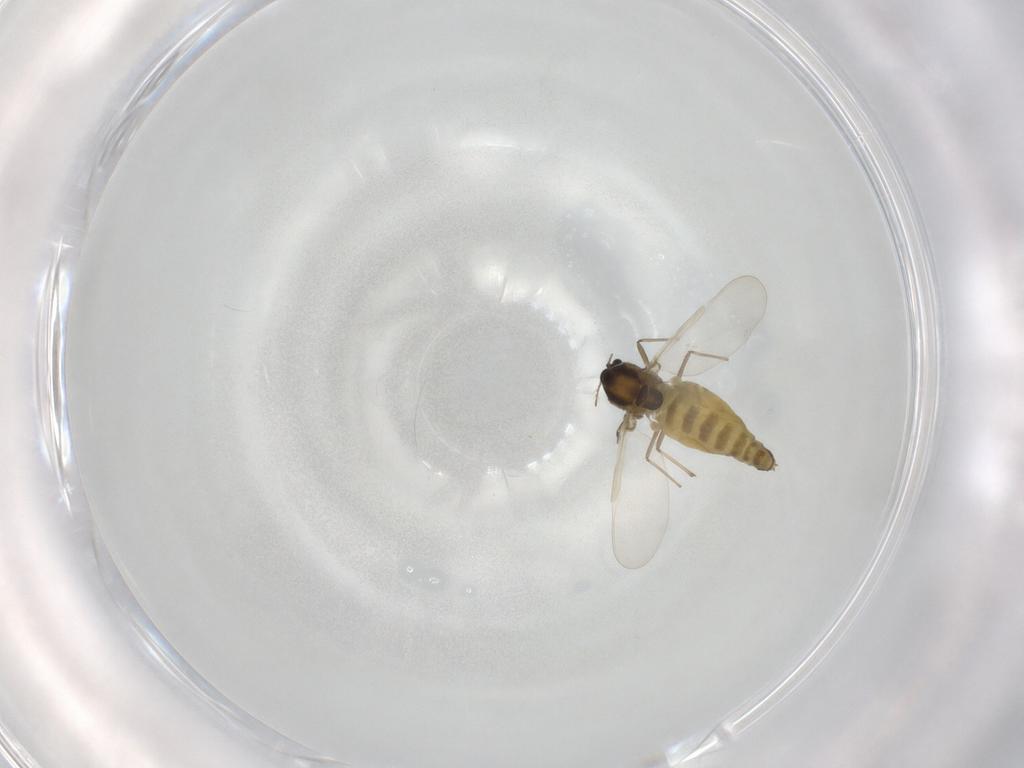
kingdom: Animalia
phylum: Arthropoda
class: Insecta
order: Diptera
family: Chironomidae
